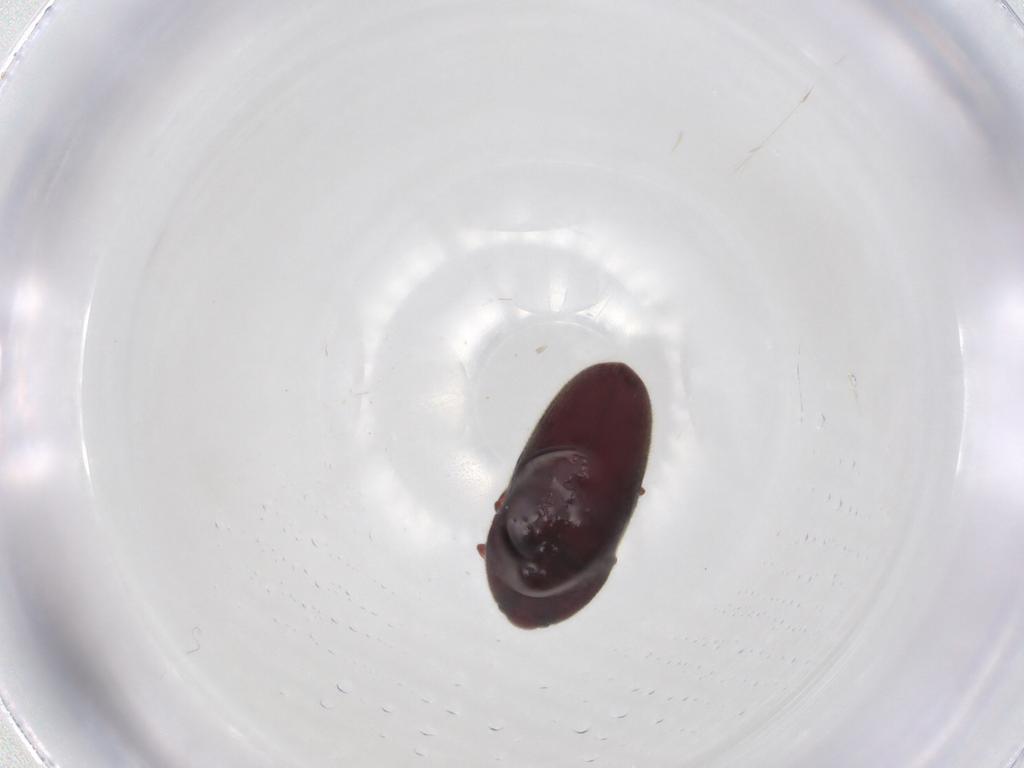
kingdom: Animalia
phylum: Arthropoda
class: Insecta
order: Coleoptera
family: Throscidae
